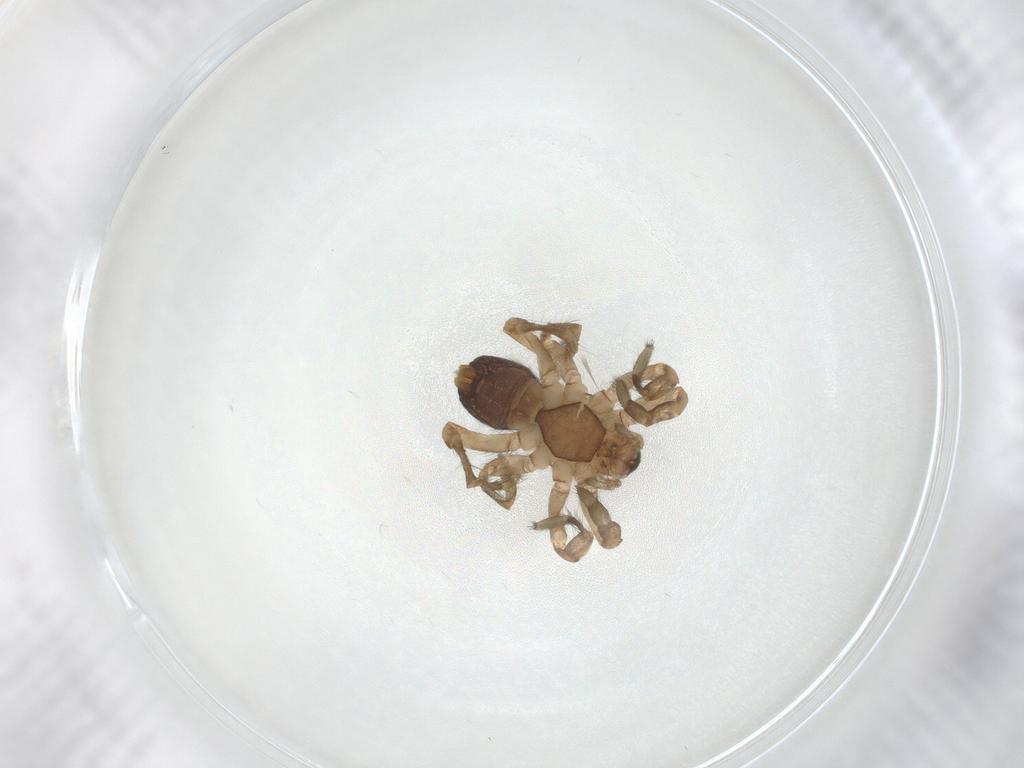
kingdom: Animalia
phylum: Arthropoda
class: Arachnida
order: Araneae
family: Anyphaenidae
